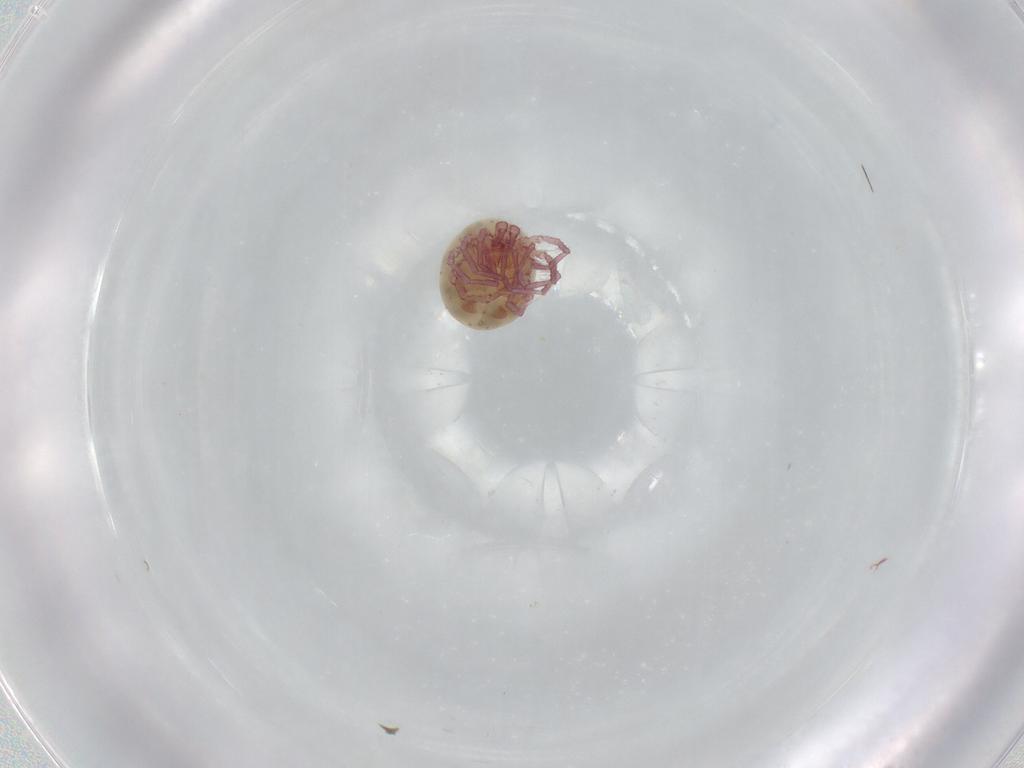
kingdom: Animalia
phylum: Arthropoda
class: Arachnida
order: Trombidiformes
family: Pionidae
